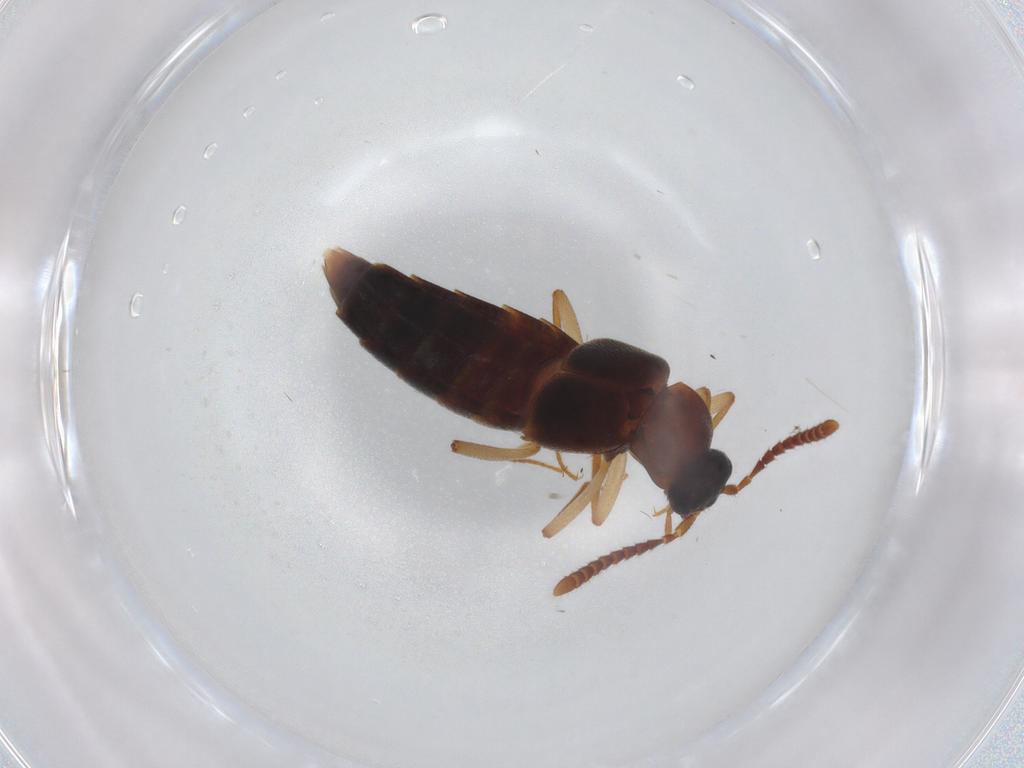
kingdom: Animalia
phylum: Arthropoda
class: Insecta
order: Coleoptera
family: Staphylinidae
